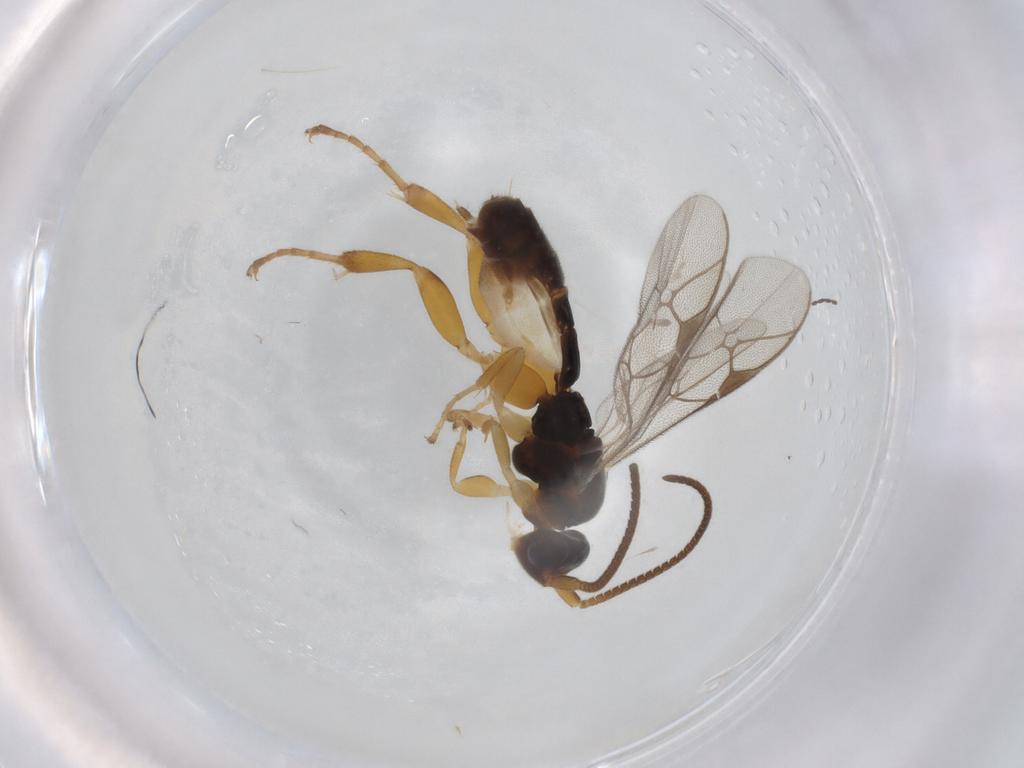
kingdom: Animalia
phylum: Arthropoda
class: Insecta
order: Hymenoptera
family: Ichneumonidae
